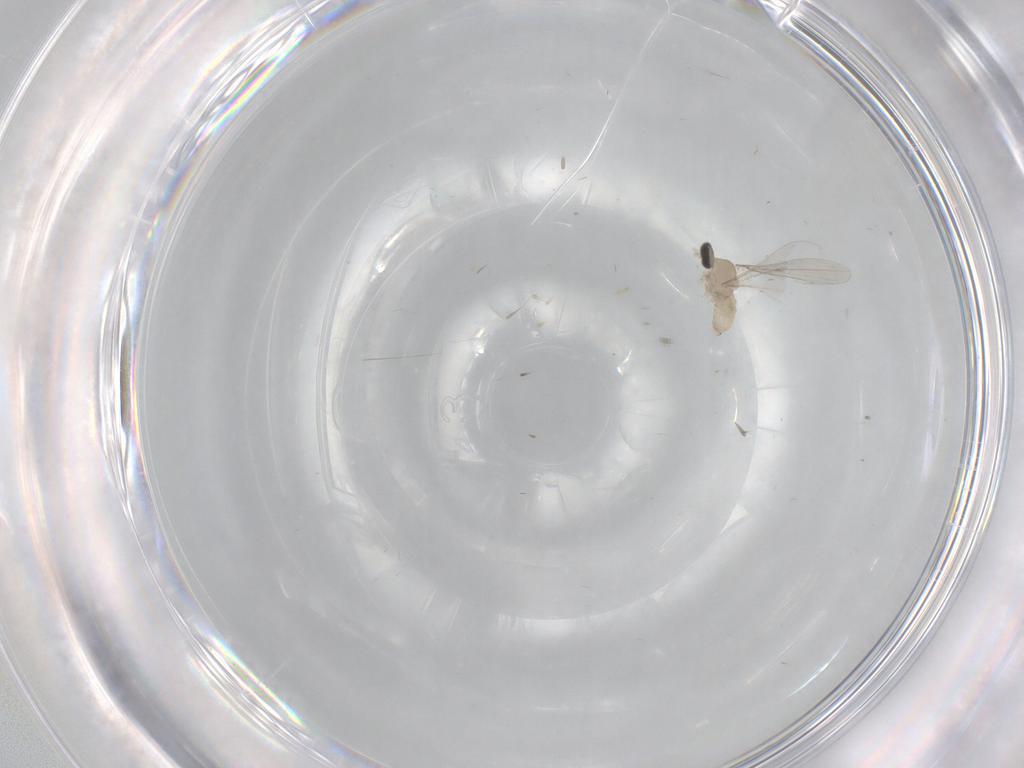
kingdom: Animalia
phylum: Arthropoda
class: Insecta
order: Diptera
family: Cecidomyiidae
